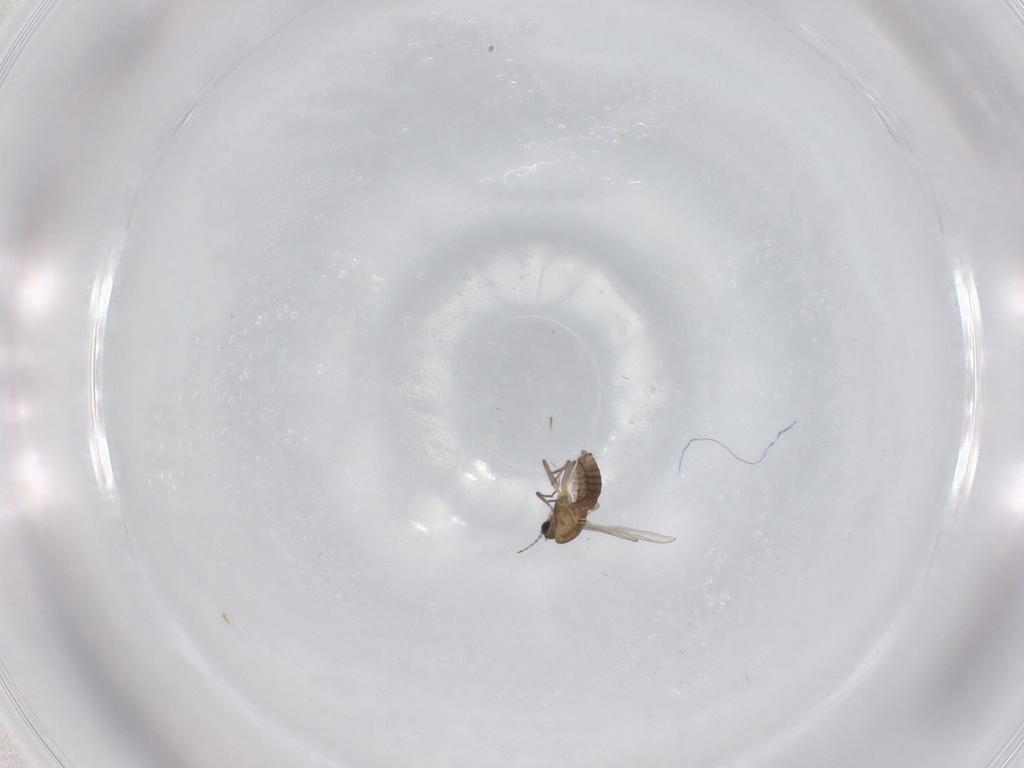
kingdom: Animalia
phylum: Arthropoda
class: Insecta
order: Diptera
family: Chironomidae
